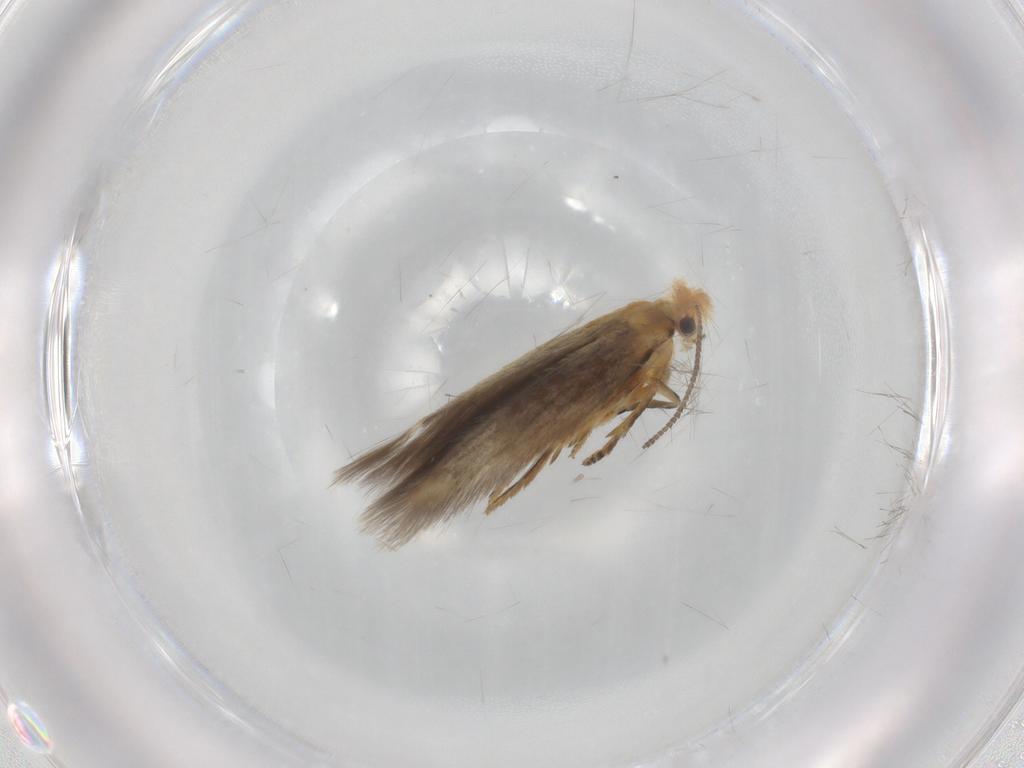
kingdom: Animalia
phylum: Arthropoda
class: Insecta
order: Lepidoptera
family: Nepticulidae
